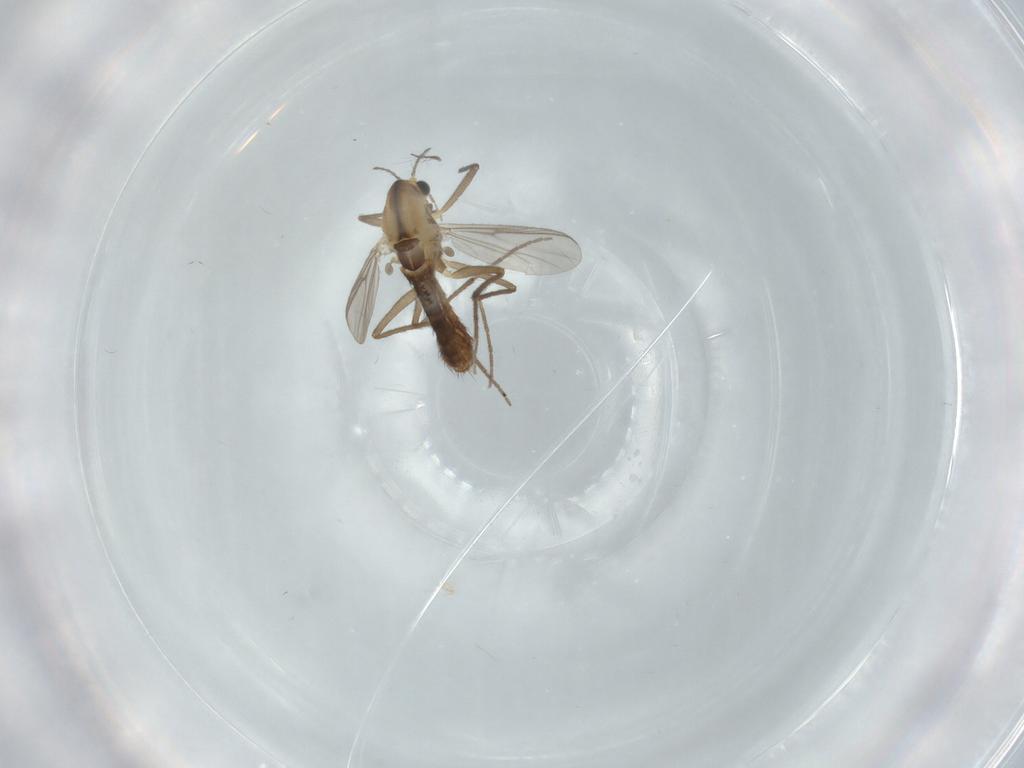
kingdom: Animalia
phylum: Arthropoda
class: Insecta
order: Diptera
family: Chironomidae
